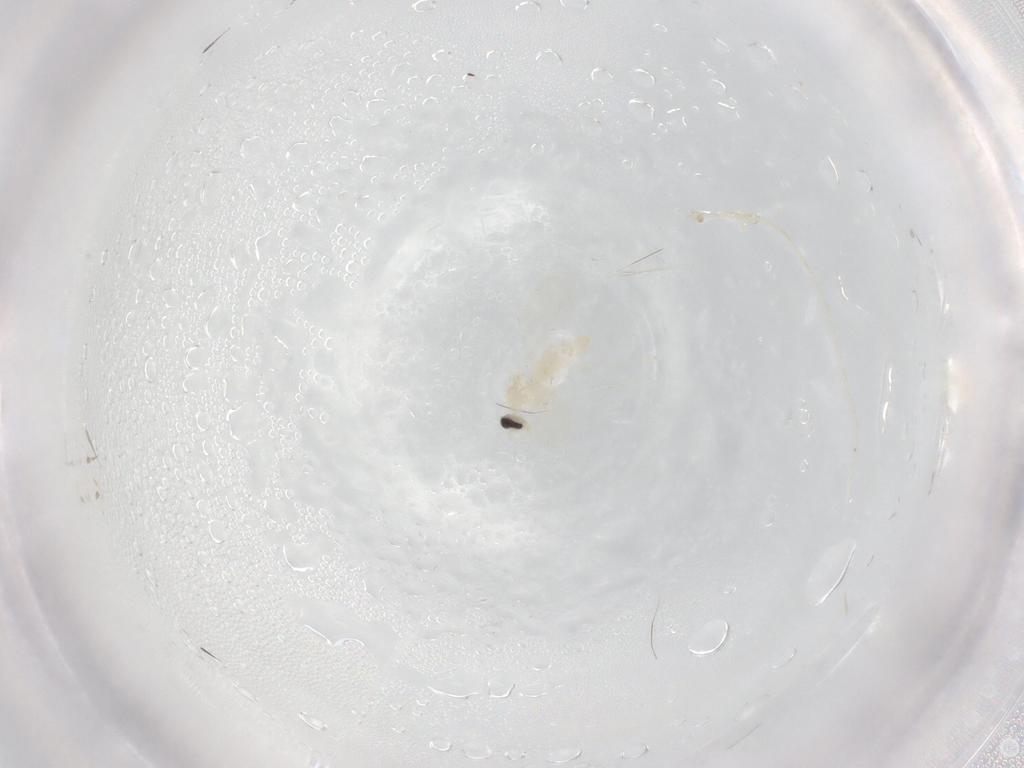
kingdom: Animalia
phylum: Arthropoda
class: Insecta
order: Diptera
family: Cecidomyiidae
